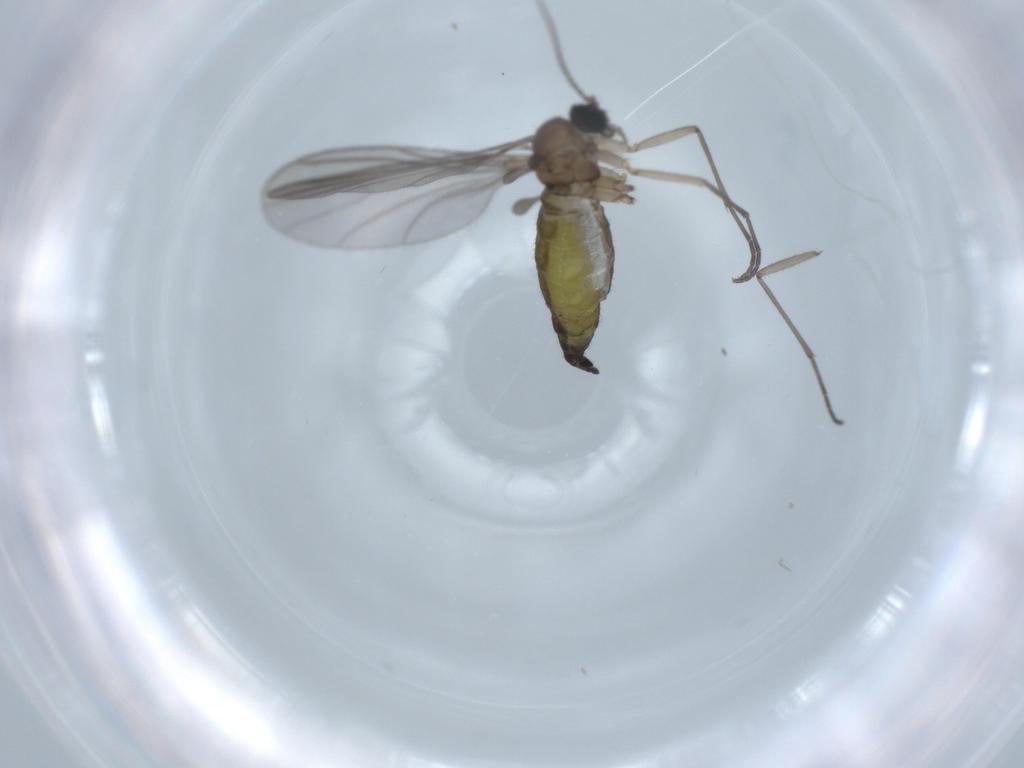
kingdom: Animalia
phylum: Arthropoda
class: Insecta
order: Diptera
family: Sciaridae
